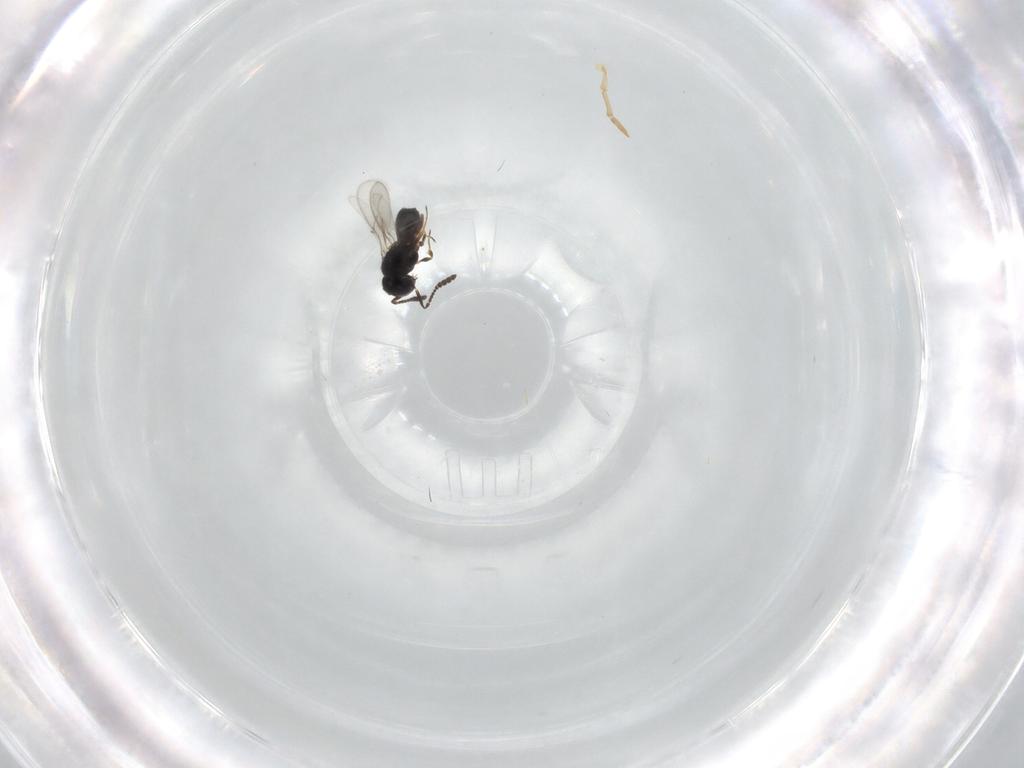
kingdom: Animalia
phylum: Arthropoda
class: Insecta
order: Hymenoptera
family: Scelionidae
